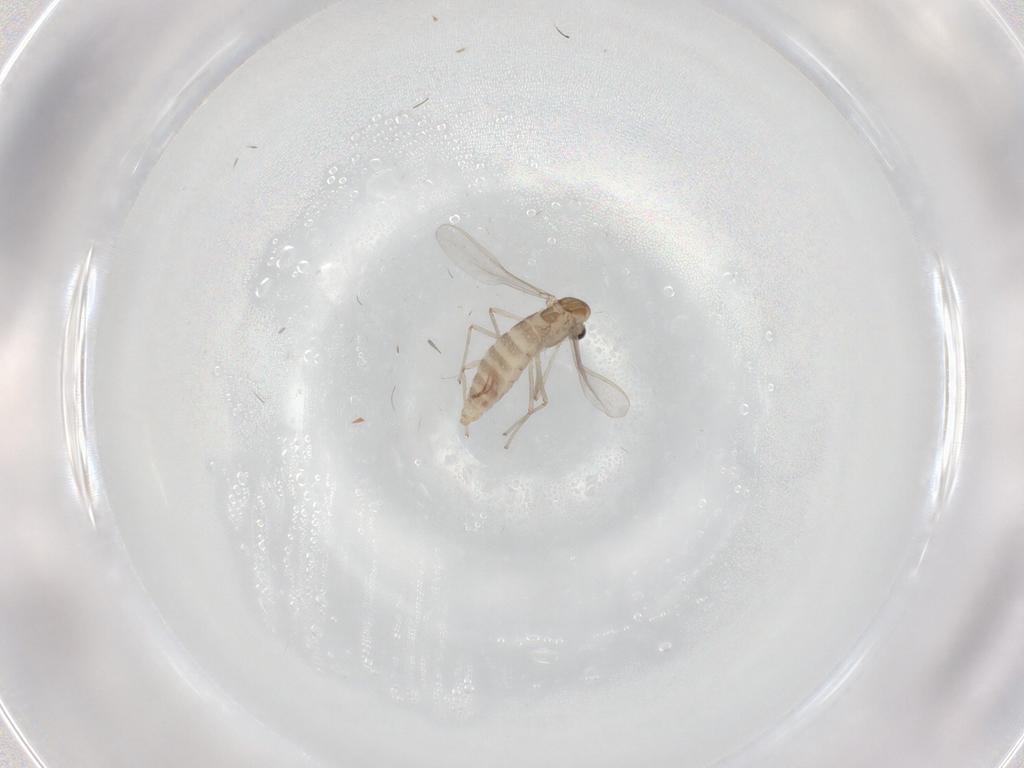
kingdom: Animalia
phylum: Arthropoda
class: Insecta
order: Diptera
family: Chironomidae
